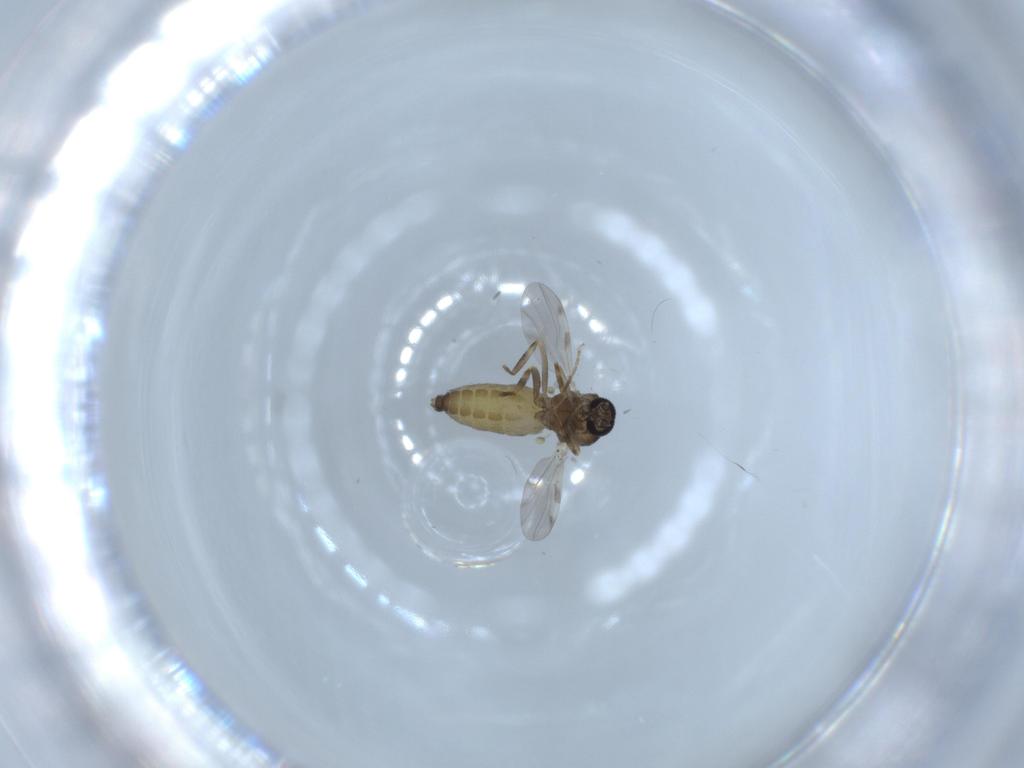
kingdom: Animalia
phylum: Arthropoda
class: Insecta
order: Diptera
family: Ceratopogonidae
